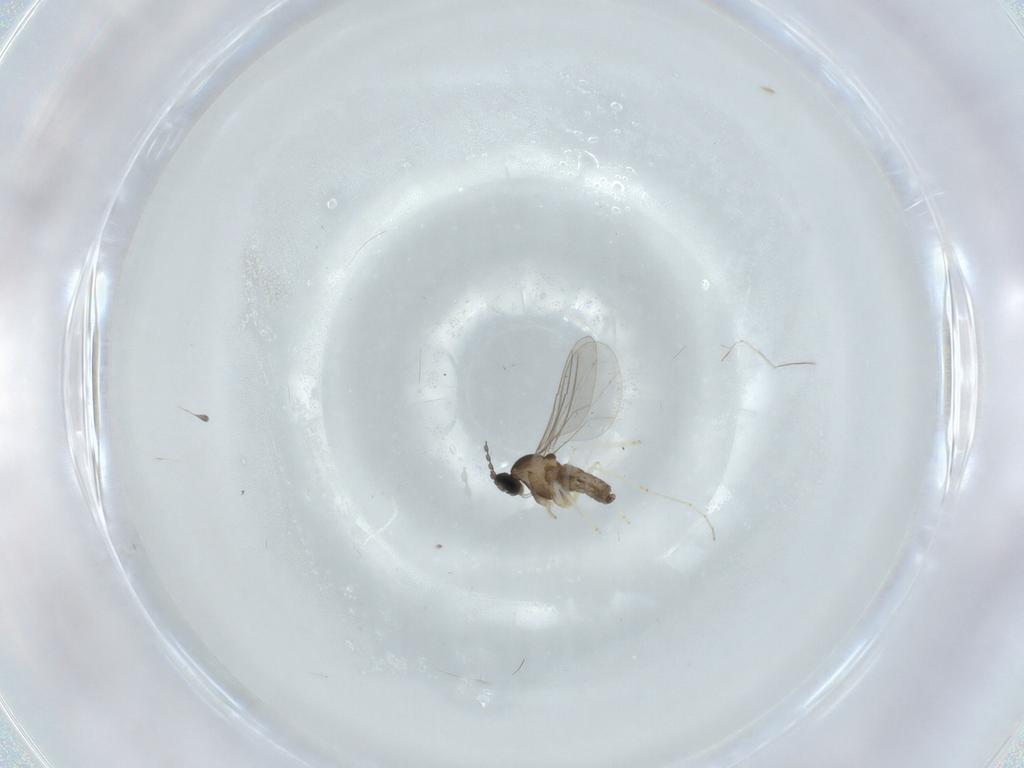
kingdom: Animalia
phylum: Arthropoda
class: Insecta
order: Diptera
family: Cecidomyiidae
